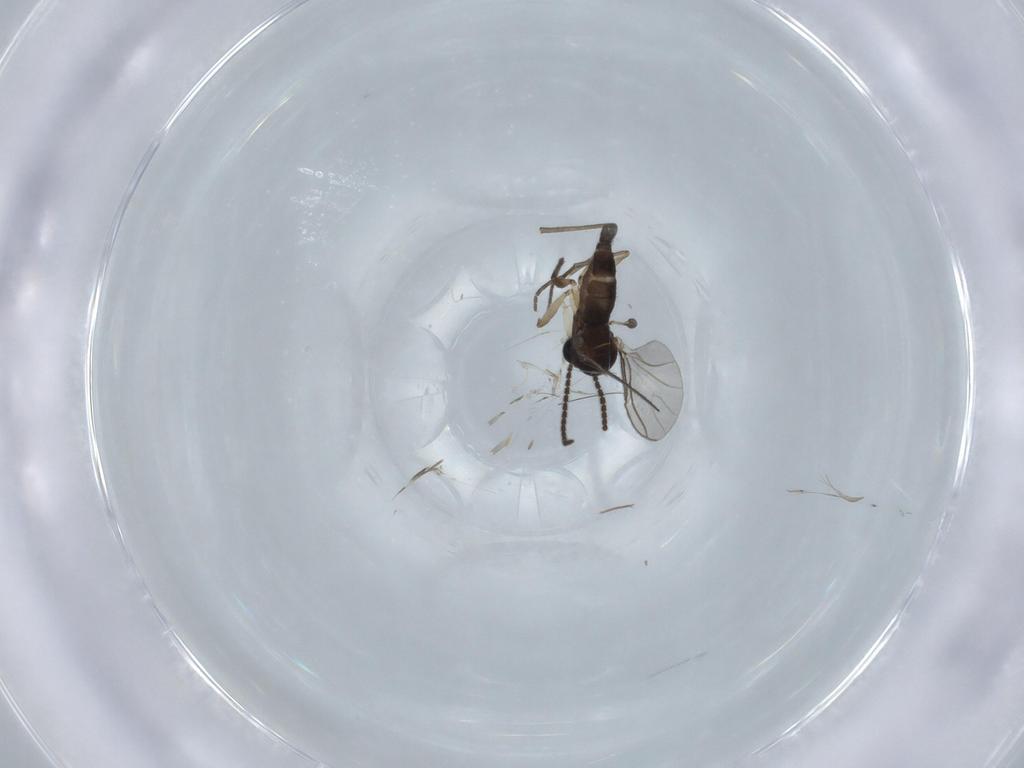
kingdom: Animalia
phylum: Arthropoda
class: Insecta
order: Diptera
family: Sciaridae
